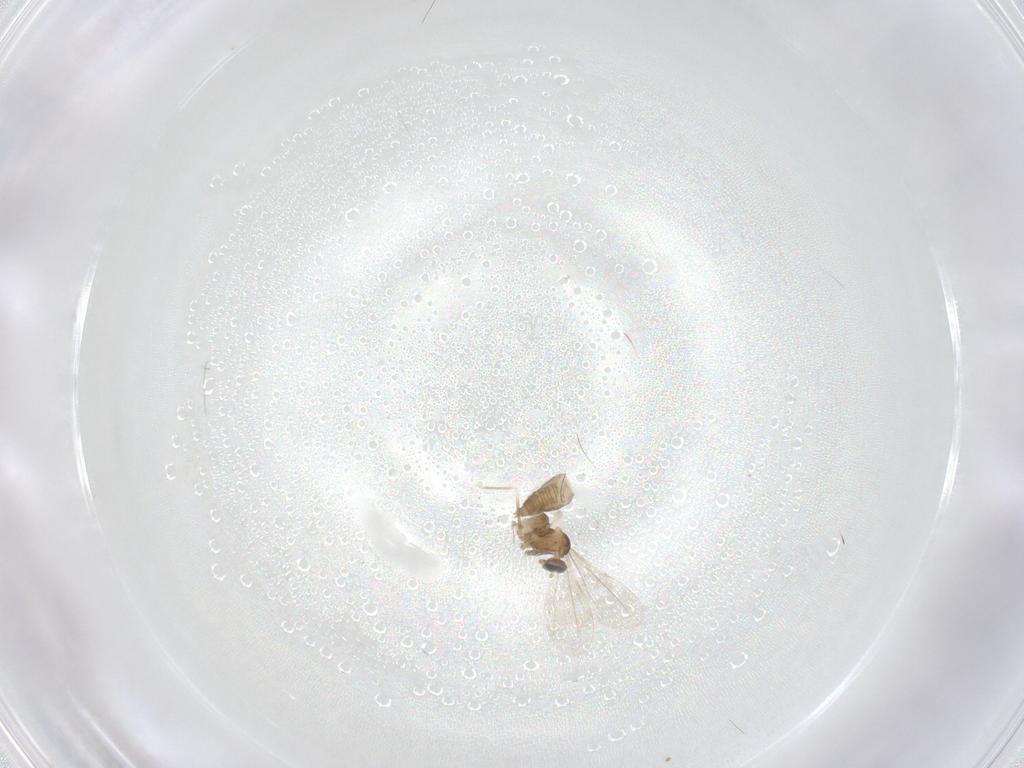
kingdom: Animalia
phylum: Arthropoda
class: Insecta
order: Diptera
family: Cecidomyiidae
